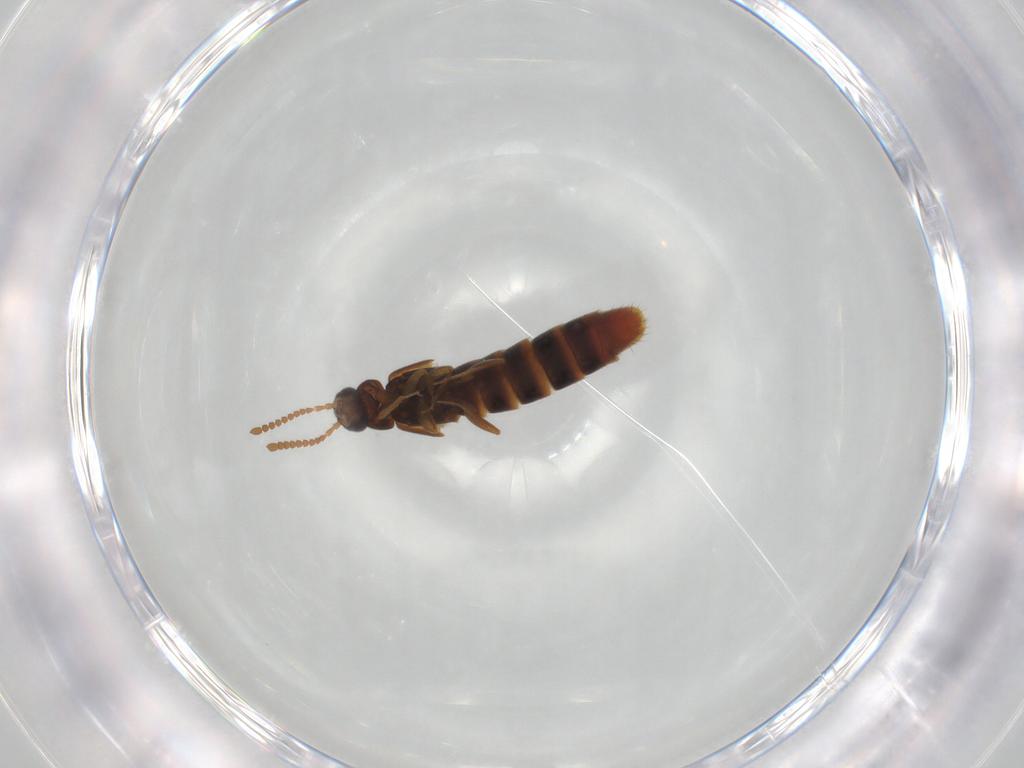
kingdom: Animalia
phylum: Arthropoda
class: Insecta
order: Coleoptera
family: Staphylinidae
